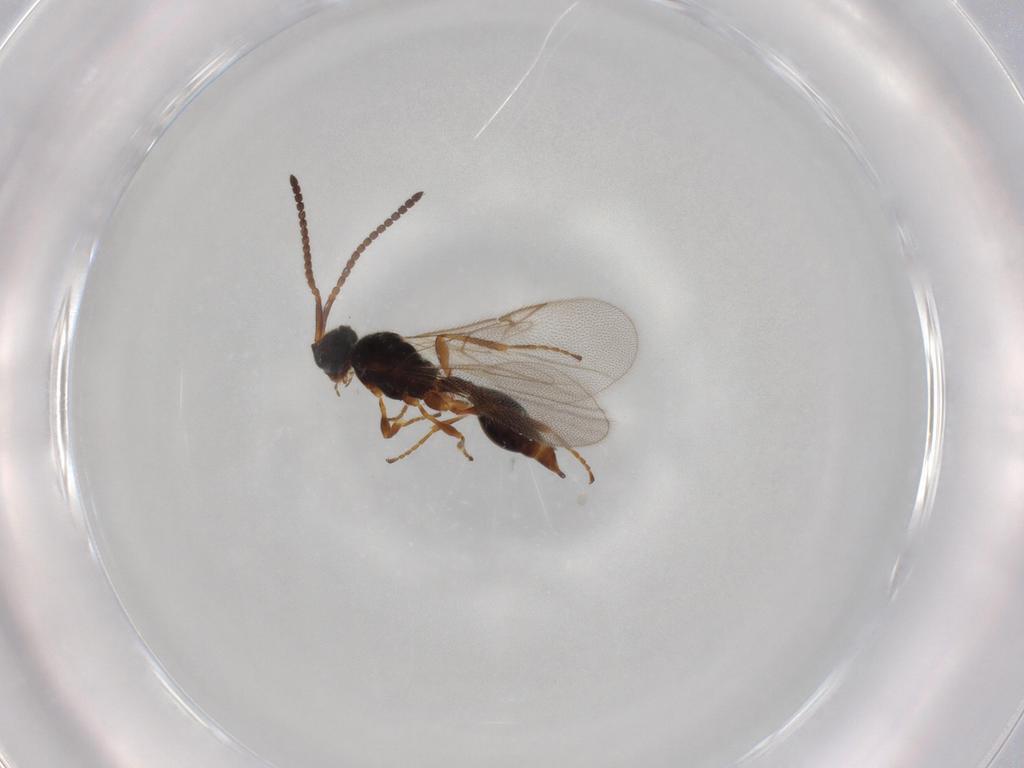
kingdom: Animalia
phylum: Arthropoda
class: Insecta
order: Hymenoptera
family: Diapriidae
